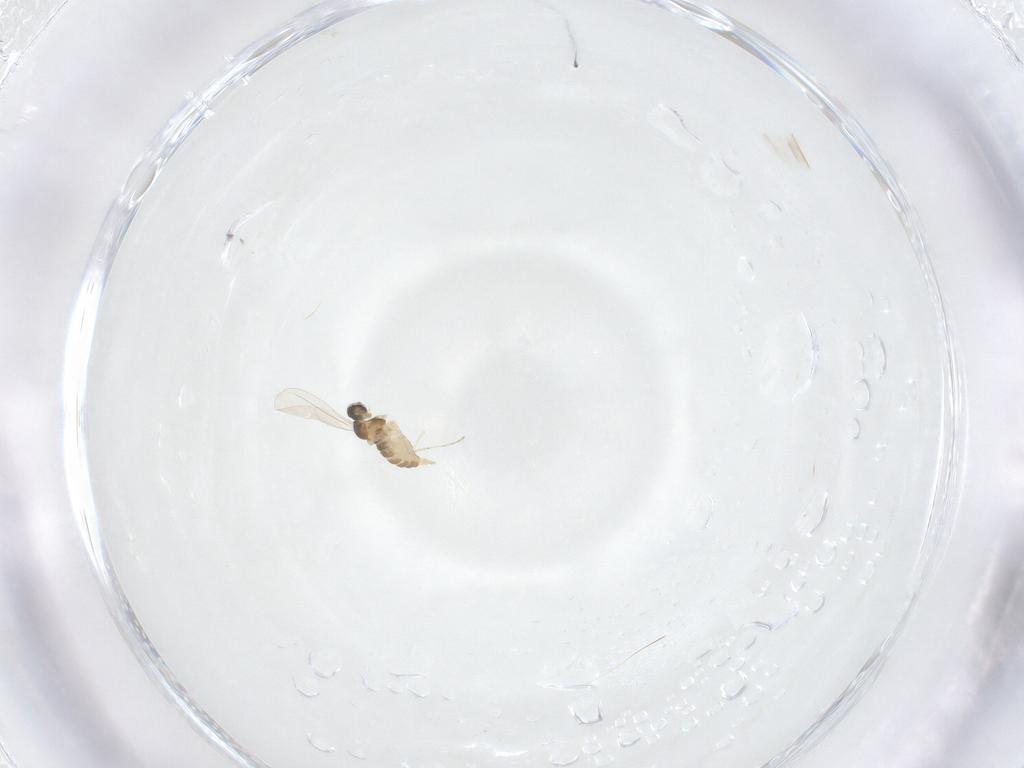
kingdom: Animalia
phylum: Arthropoda
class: Insecta
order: Diptera
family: Cecidomyiidae
